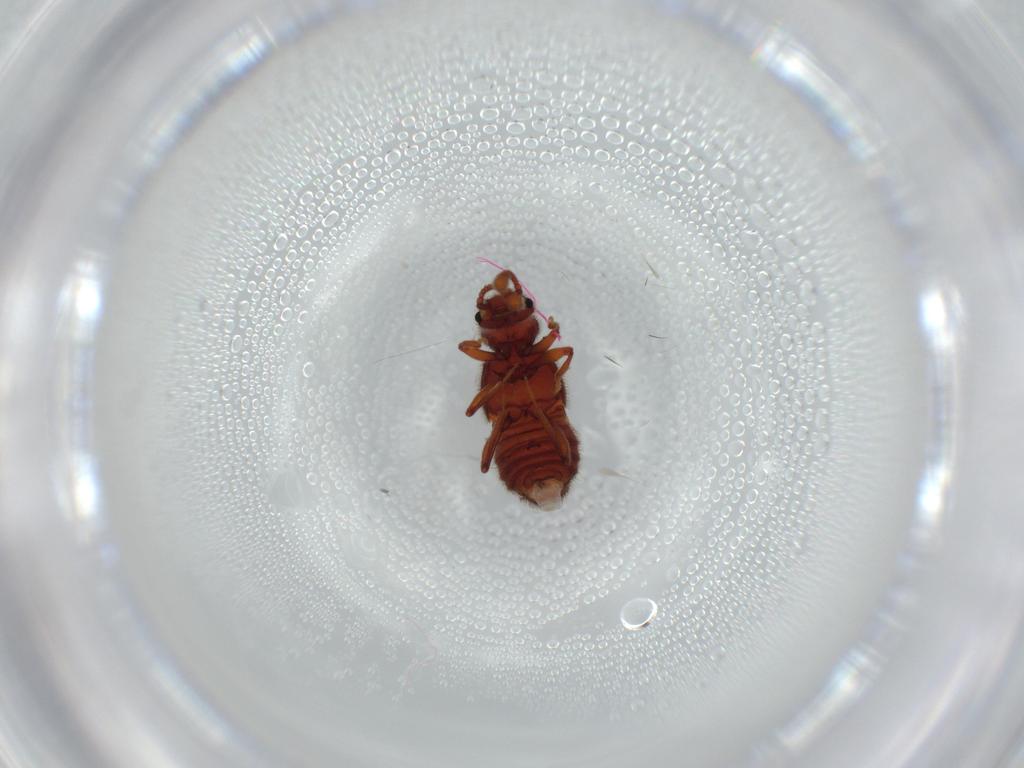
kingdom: Animalia
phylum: Arthropoda
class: Insecta
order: Coleoptera
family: Staphylinidae
